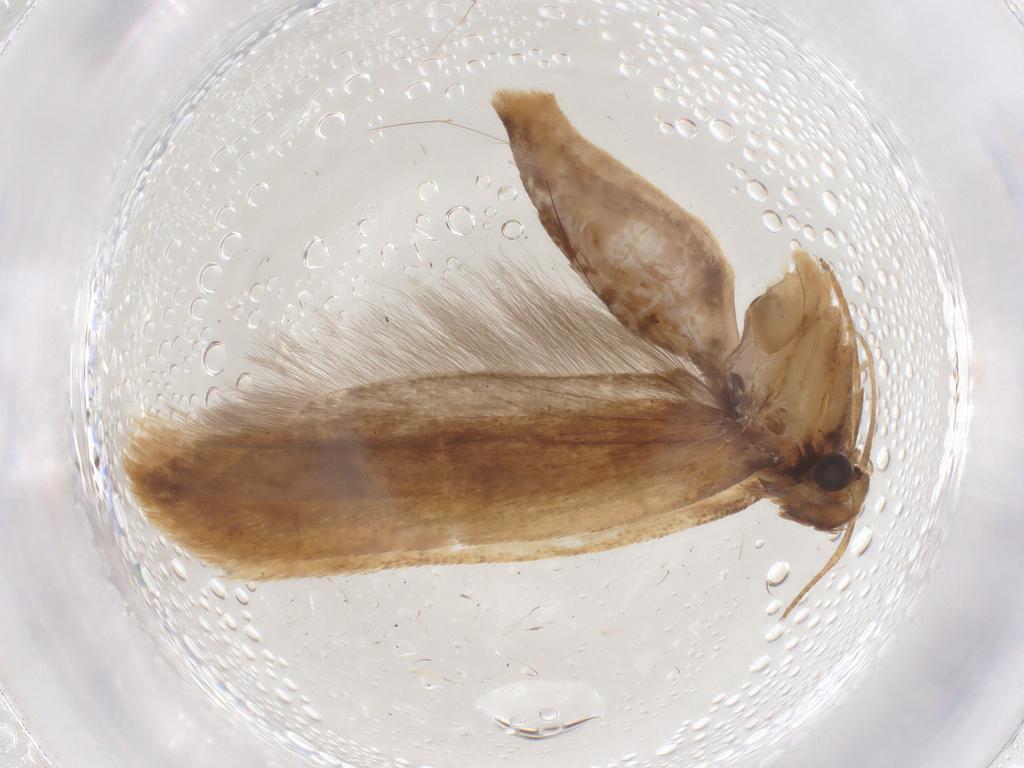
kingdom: Animalia
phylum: Arthropoda
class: Insecta
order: Lepidoptera
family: Gelechiidae
